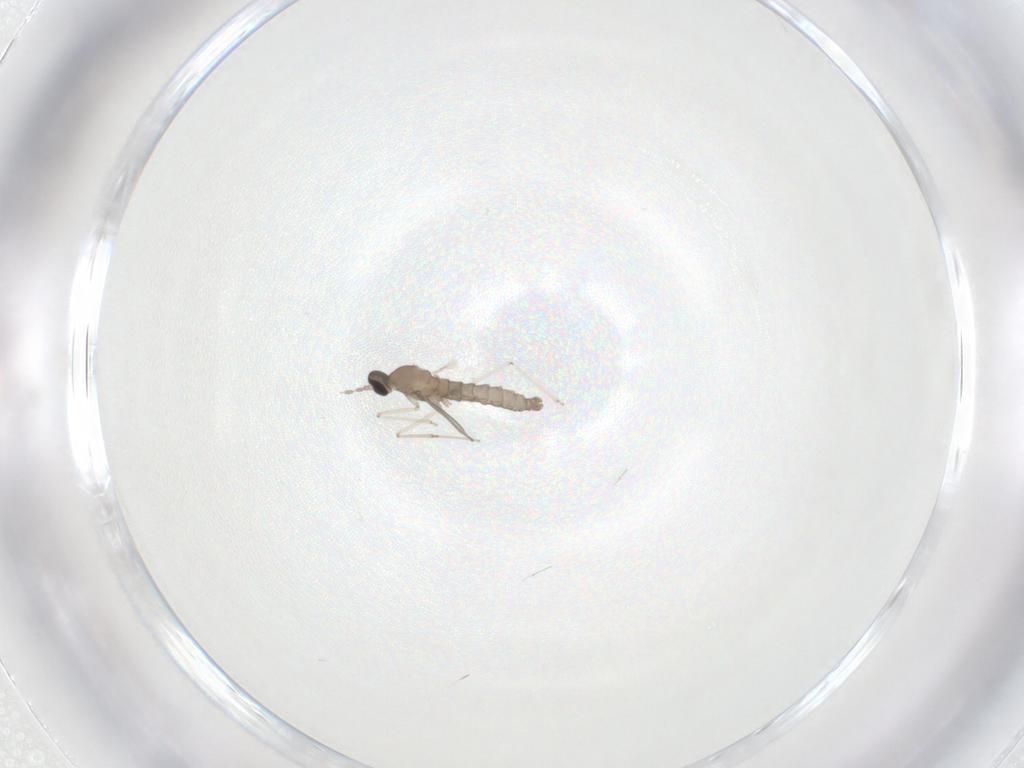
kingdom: Animalia
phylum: Arthropoda
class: Insecta
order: Diptera
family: Cecidomyiidae
